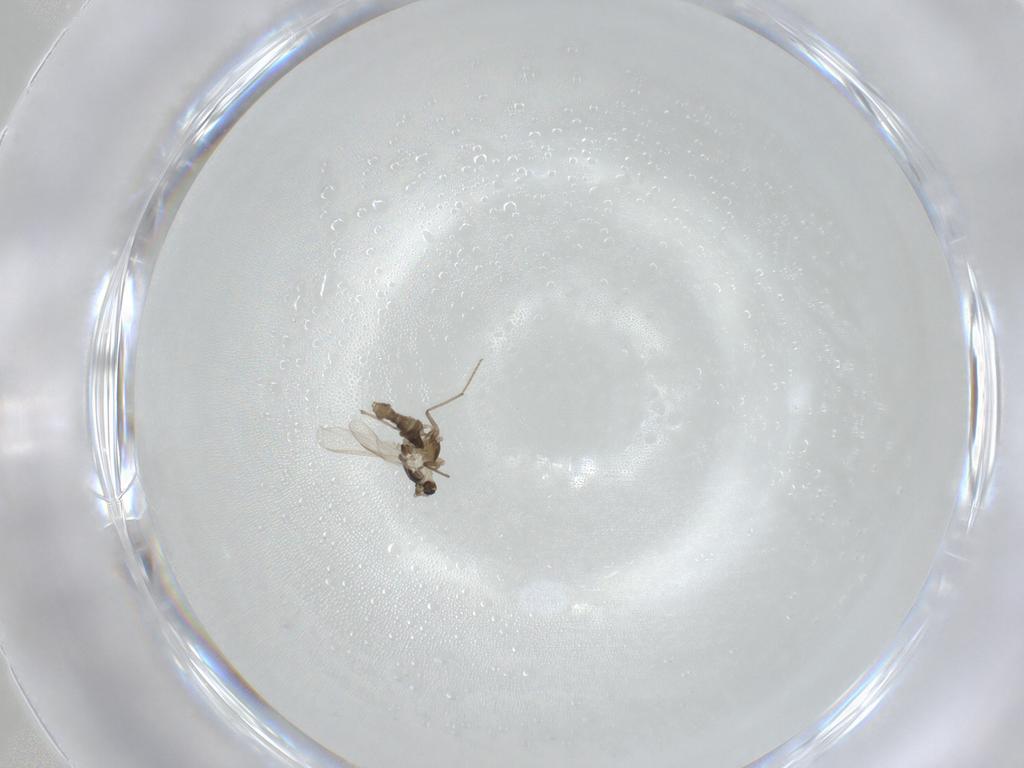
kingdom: Animalia
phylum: Arthropoda
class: Insecta
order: Diptera
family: Chironomidae
